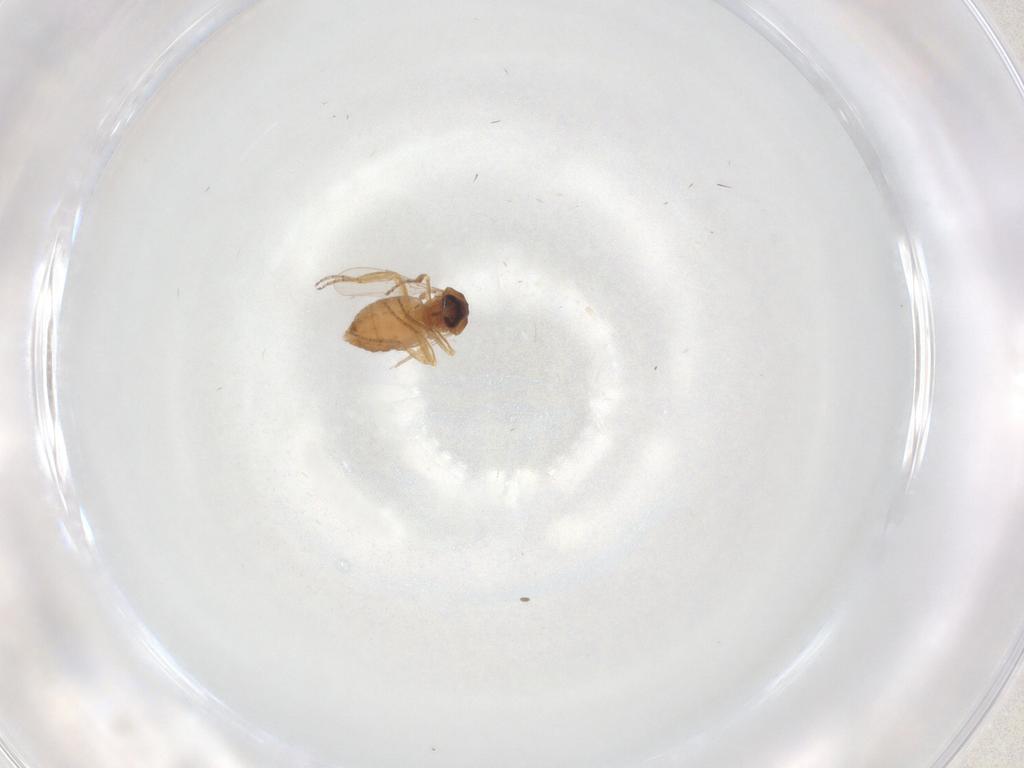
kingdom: Animalia
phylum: Arthropoda
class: Insecta
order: Diptera
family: Ceratopogonidae
